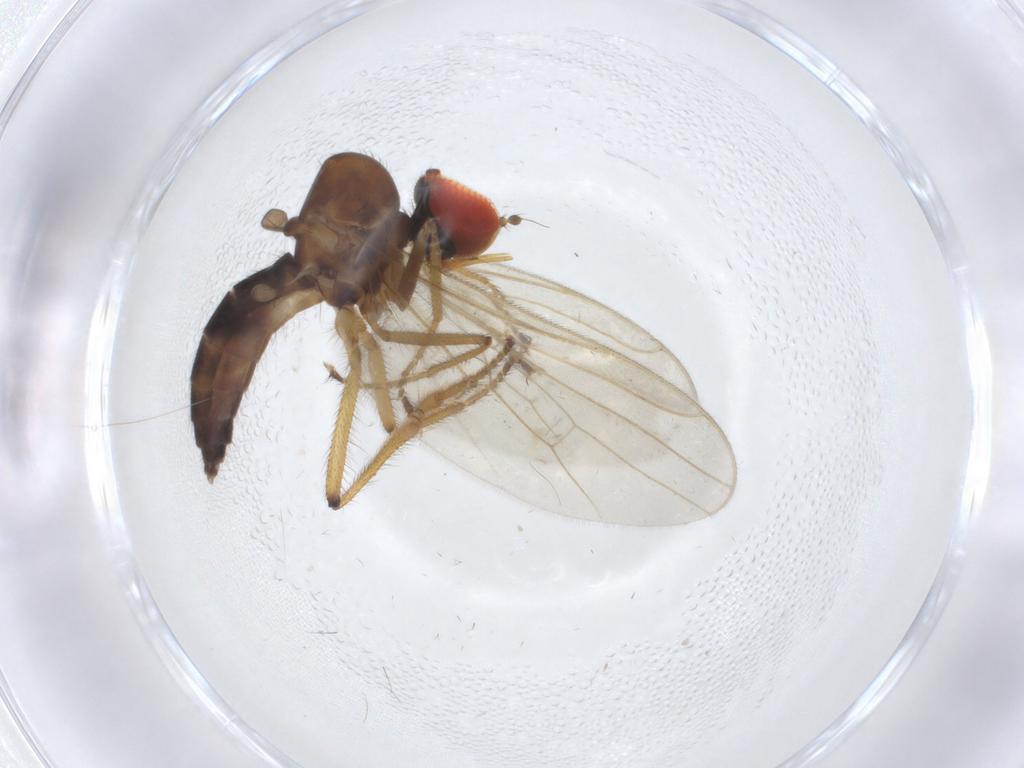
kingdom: Animalia
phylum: Arthropoda
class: Insecta
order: Diptera
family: Hybotidae
